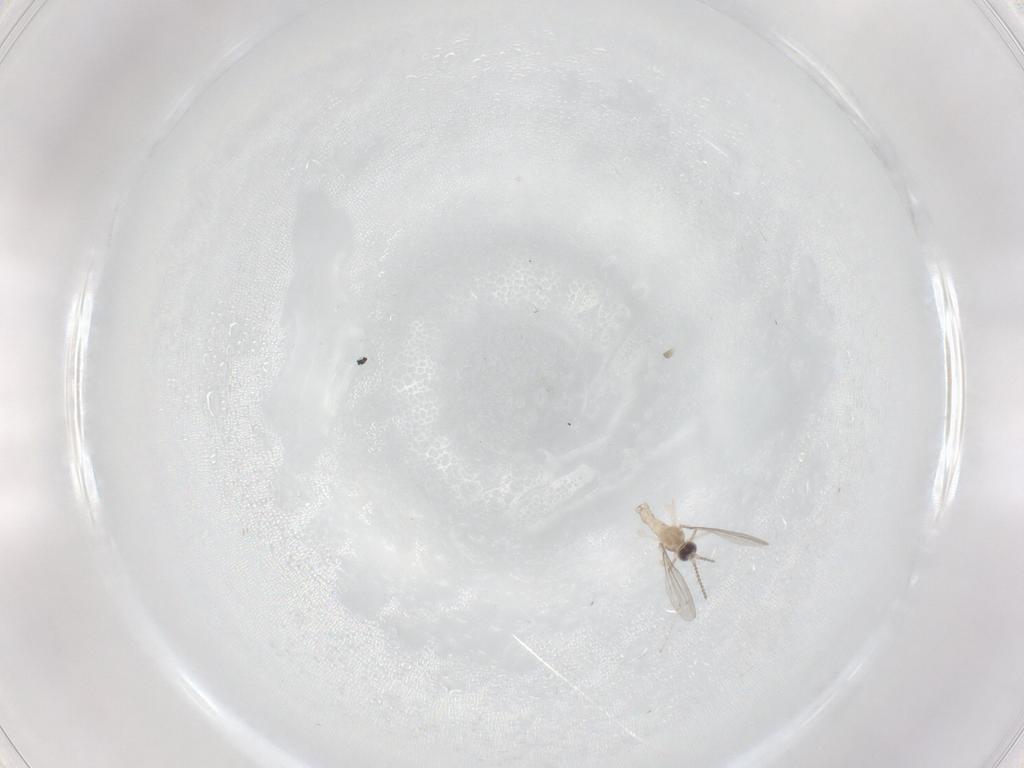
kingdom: Animalia
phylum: Arthropoda
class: Insecta
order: Diptera
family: Cecidomyiidae
